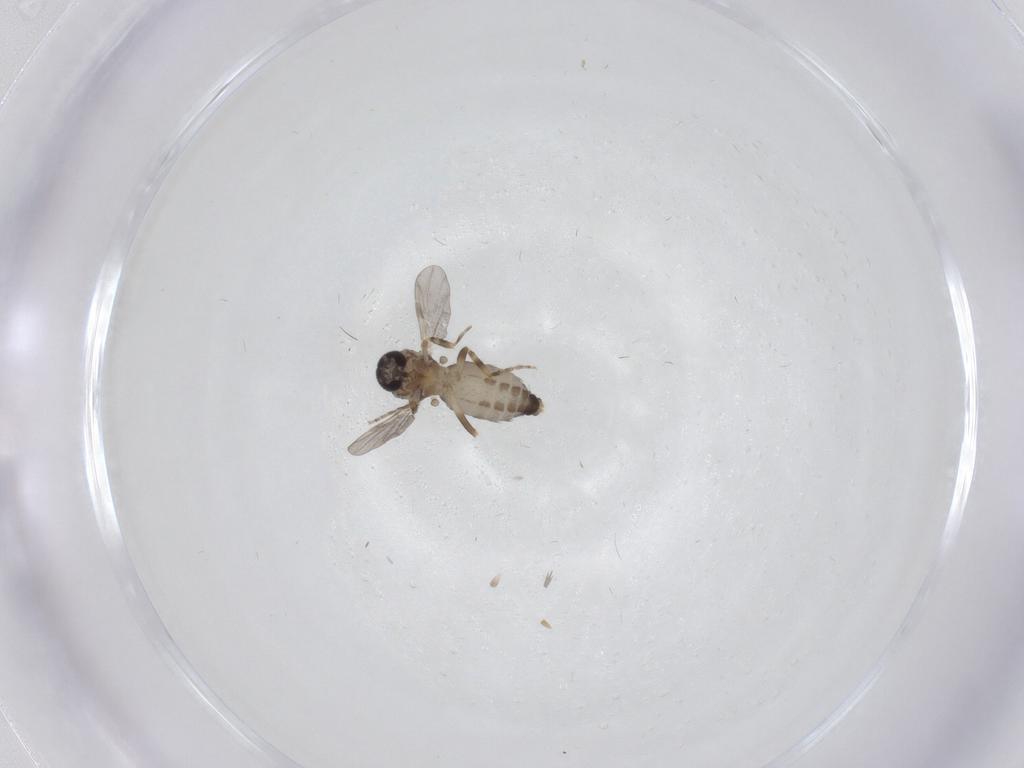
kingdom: Animalia
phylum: Arthropoda
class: Insecta
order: Diptera
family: Ceratopogonidae
